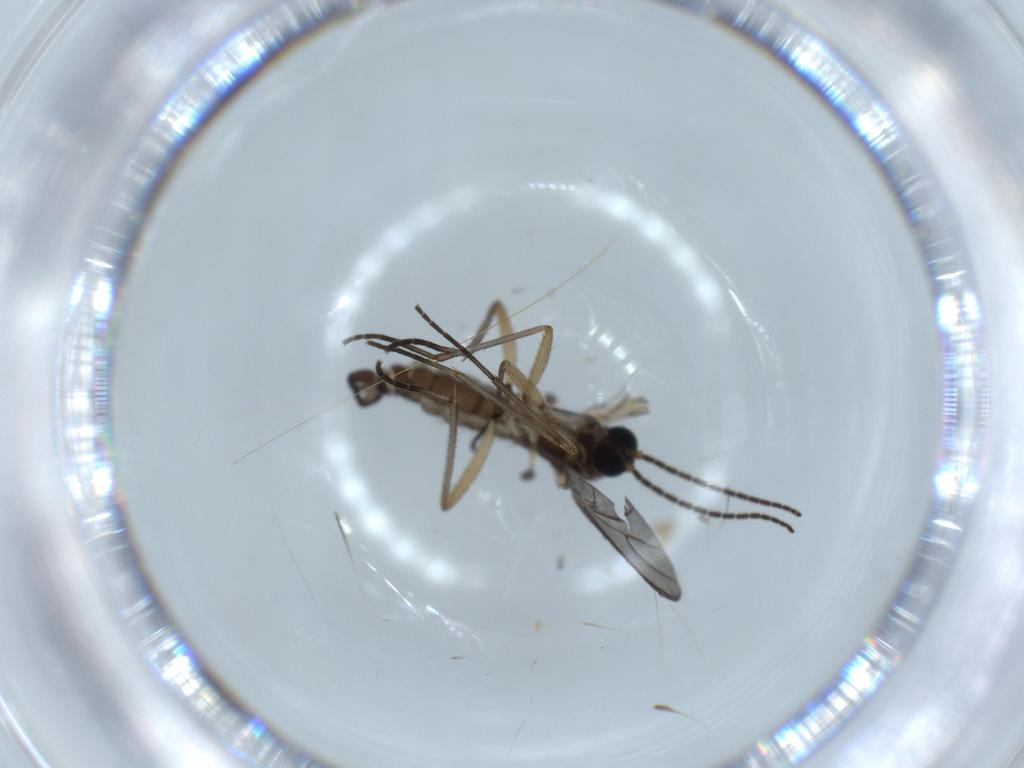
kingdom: Animalia
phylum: Arthropoda
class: Insecta
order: Diptera
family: Sciaridae
